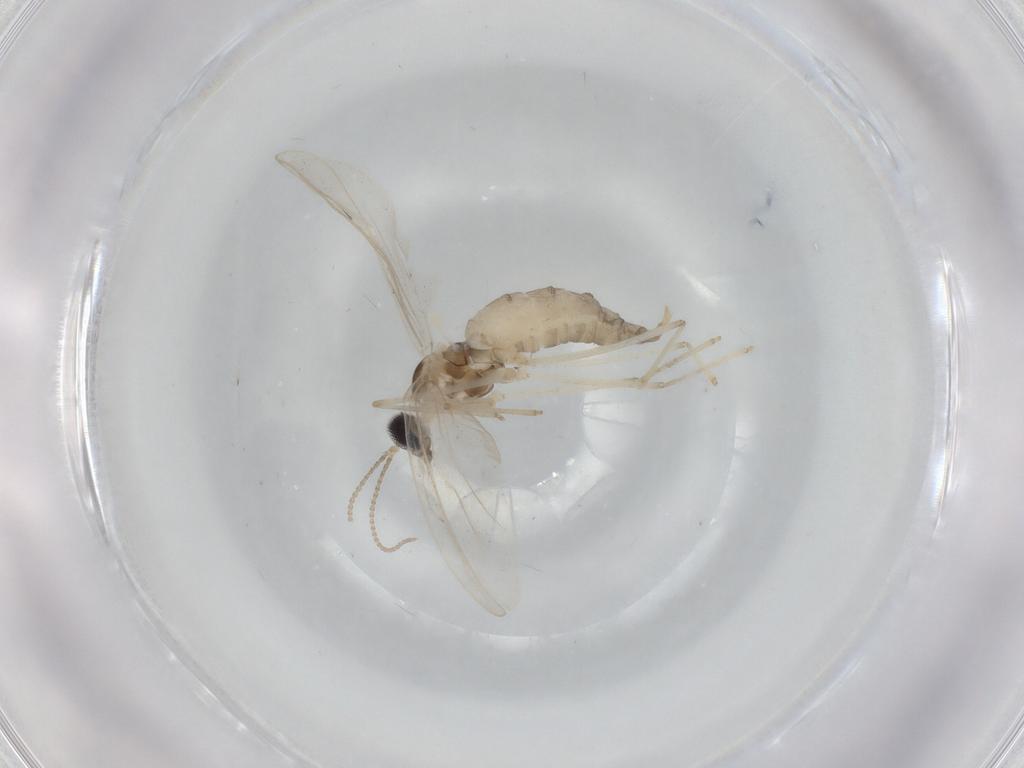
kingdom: Animalia
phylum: Arthropoda
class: Insecta
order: Diptera
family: Cecidomyiidae
